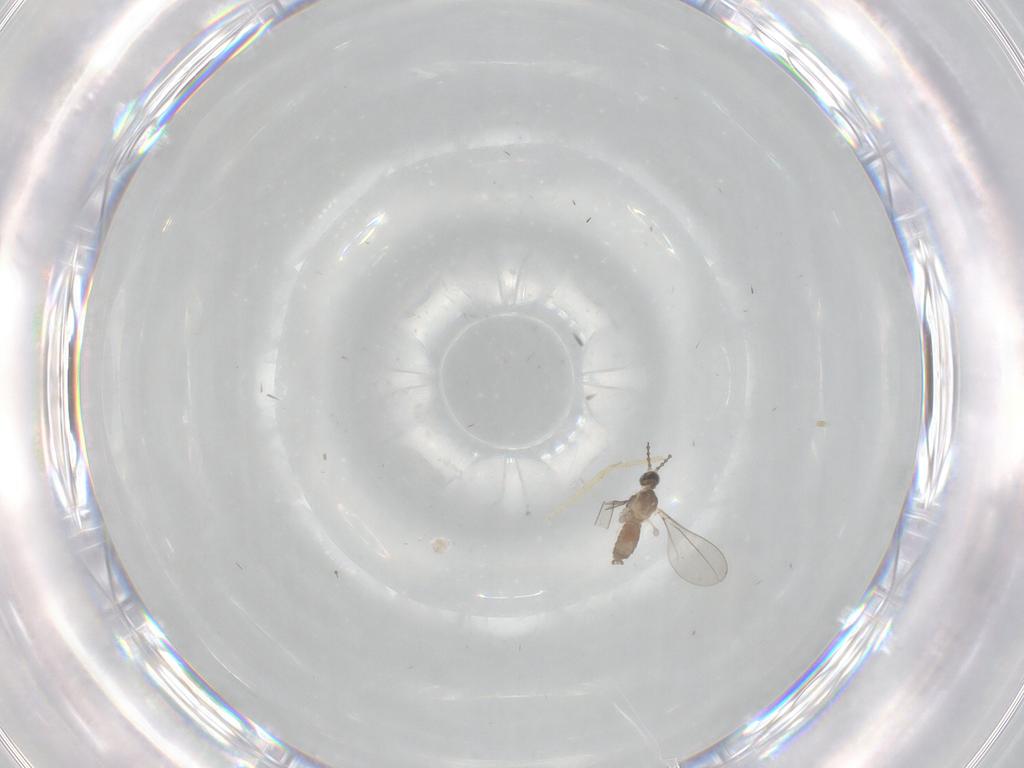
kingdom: Animalia
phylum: Arthropoda
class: Insecta
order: Diptera
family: Cecidomyiidae
